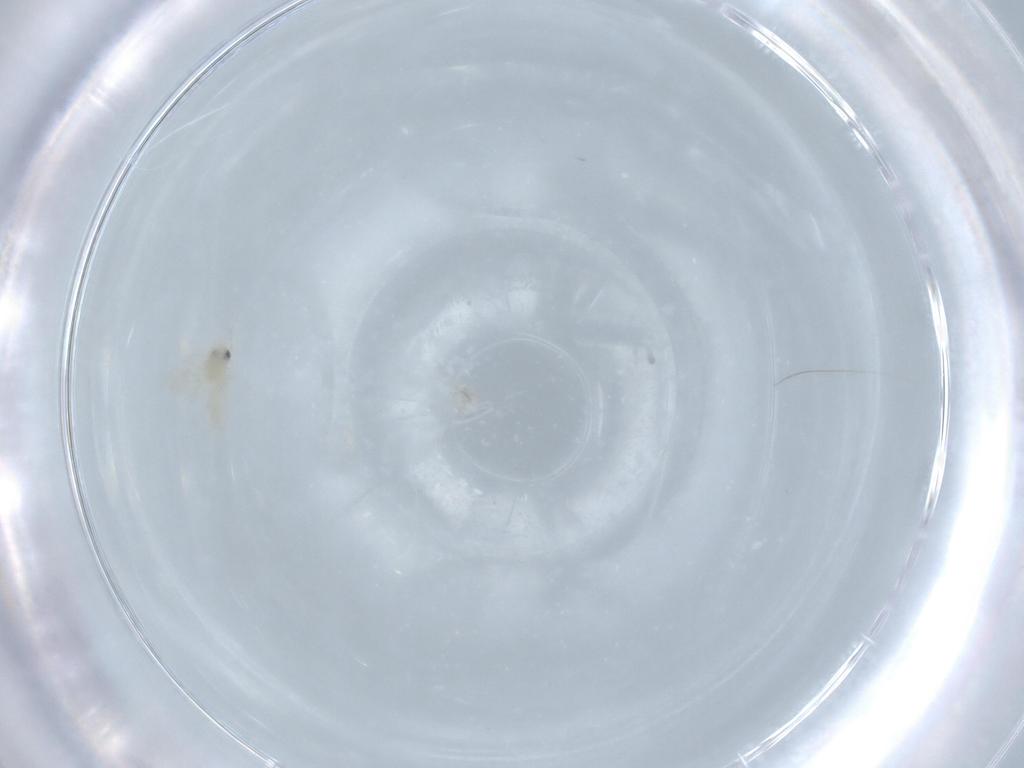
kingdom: Animalia
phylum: Arthropoda
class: Insecta
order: Hemiptera
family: Aleyrodidae
